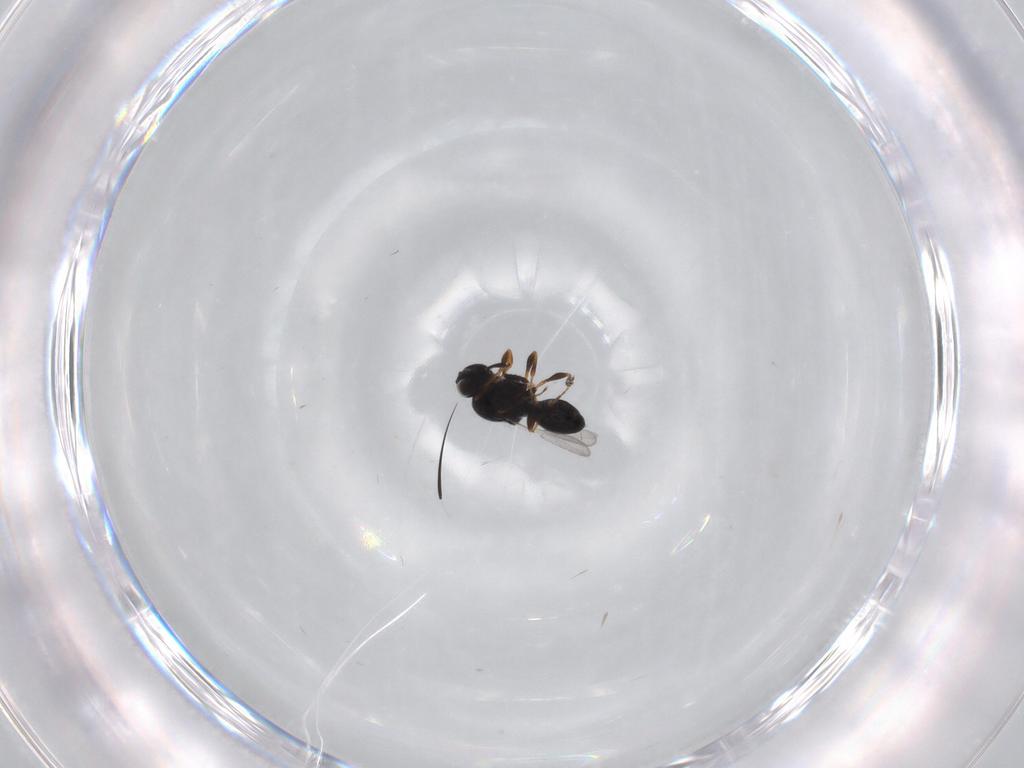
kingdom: Animalia
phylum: Arthropoda
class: Insecta
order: Hymenoptera
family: Platygastridae
